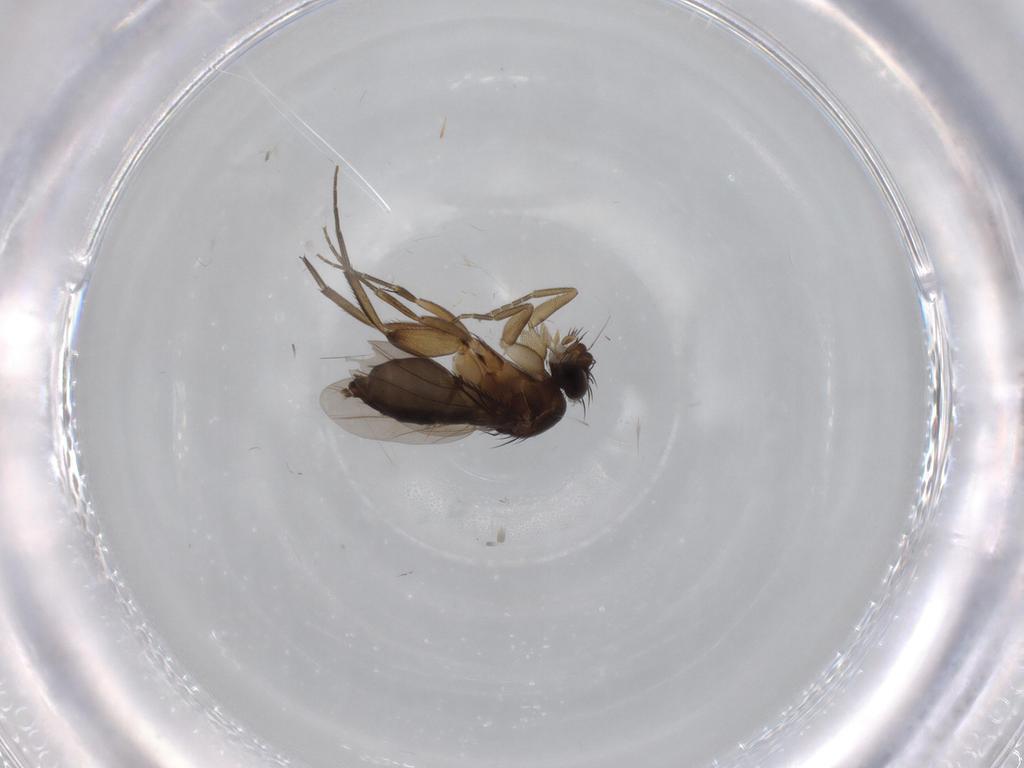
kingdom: Animalia
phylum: Arthropoda
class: Insecta
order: Diptera
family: Phoridae
